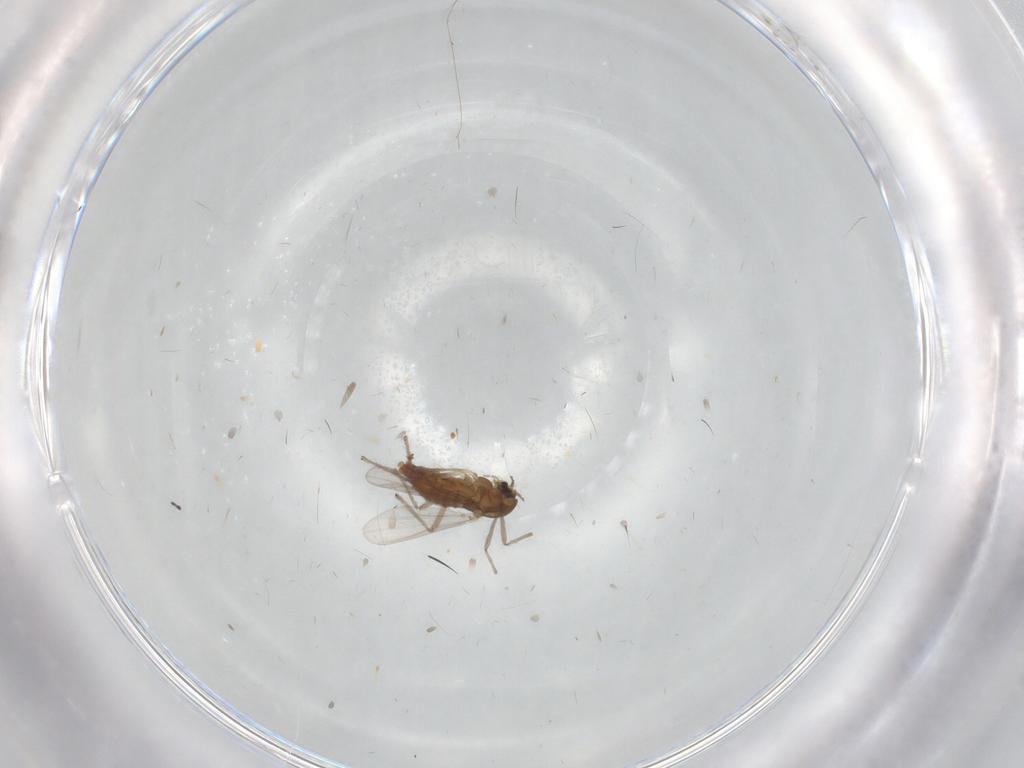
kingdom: Animalia
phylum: Arthropoda
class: Insecta
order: Diptera
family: Chironomidae
